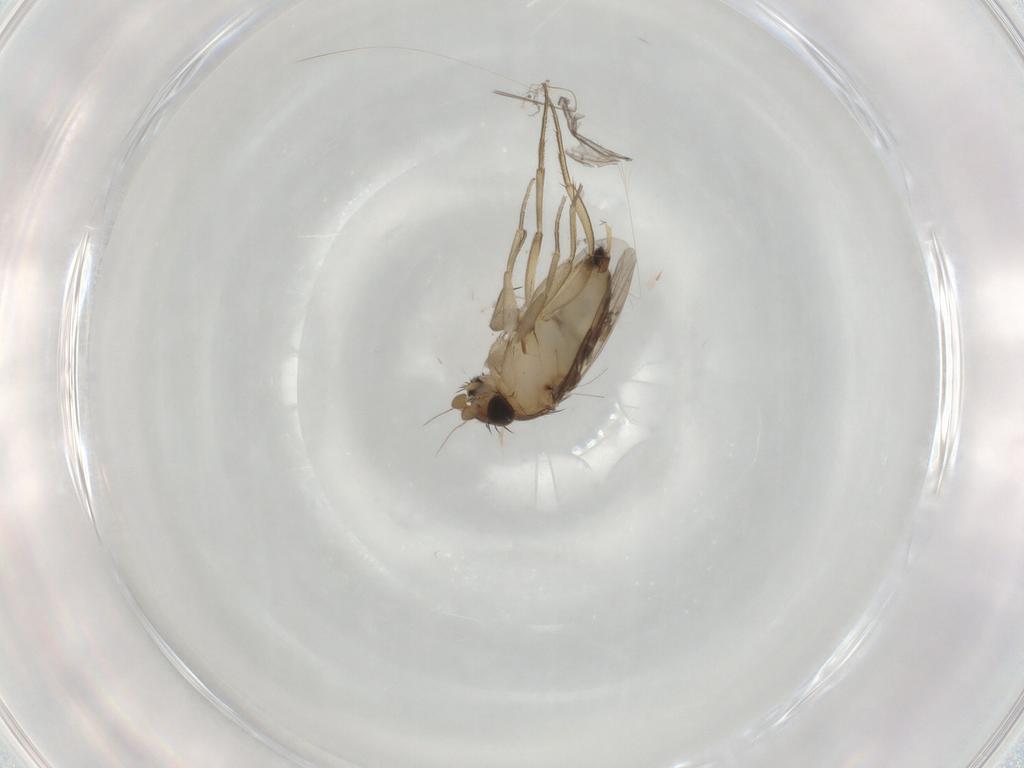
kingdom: Animalia
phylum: Arthropoda
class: Insecta
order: Diptera
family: Phoridae
